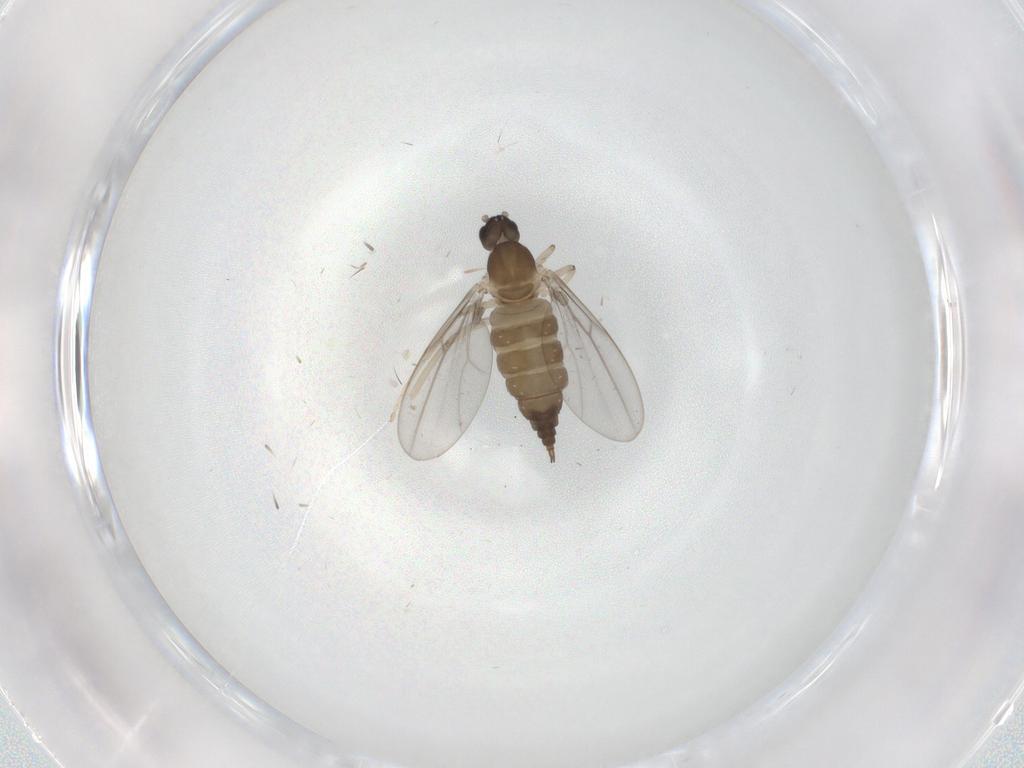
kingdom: Animalia
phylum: Arthropoda
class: Insecta
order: Diptera
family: Cecidomyiidae
